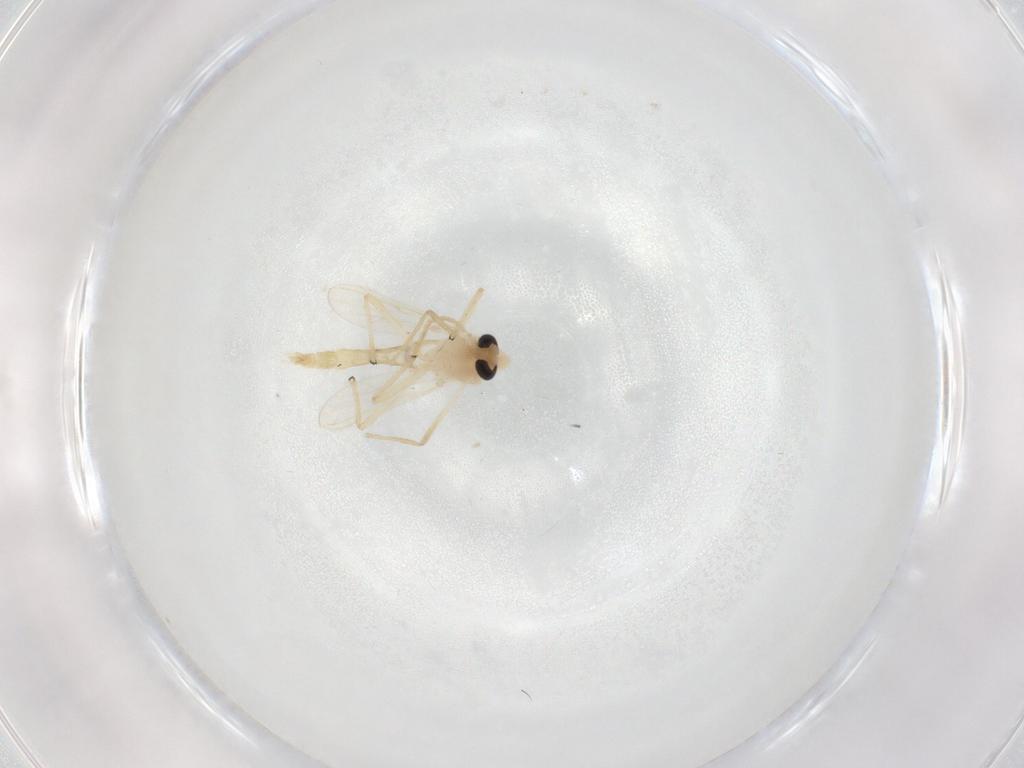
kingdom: Animalia
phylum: Arthropoda
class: Insecta
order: Diptera
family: Chironomidae
